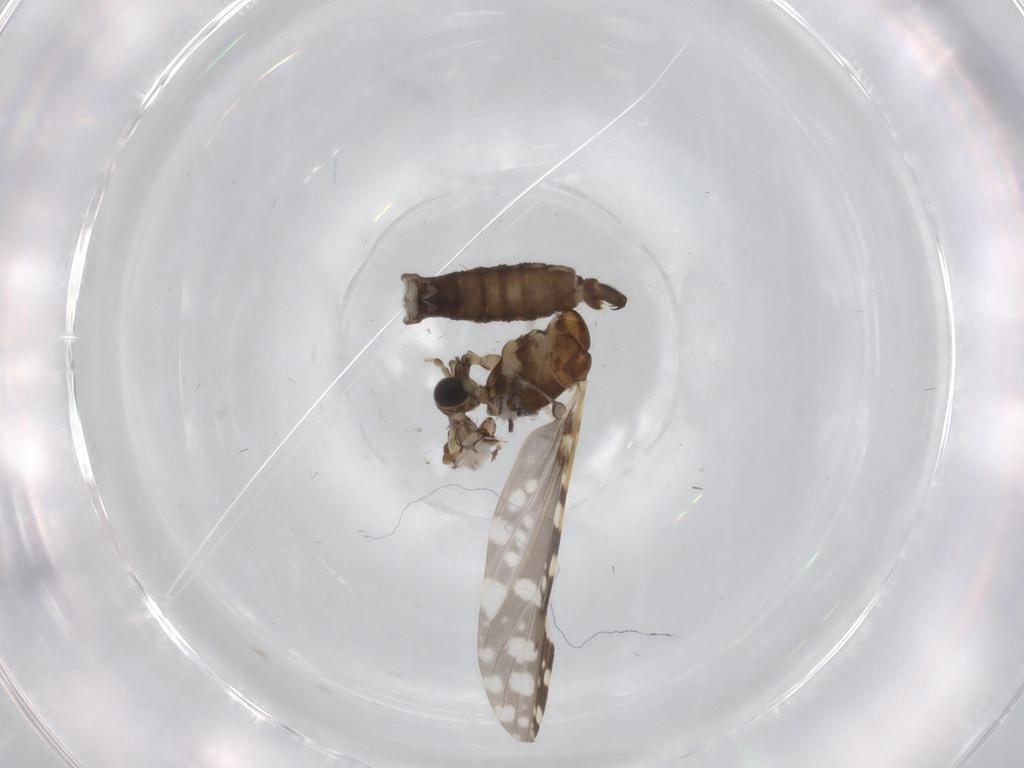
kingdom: Animalia
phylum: Arthropoda
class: Insecta
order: Diptera
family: Limoniidae
